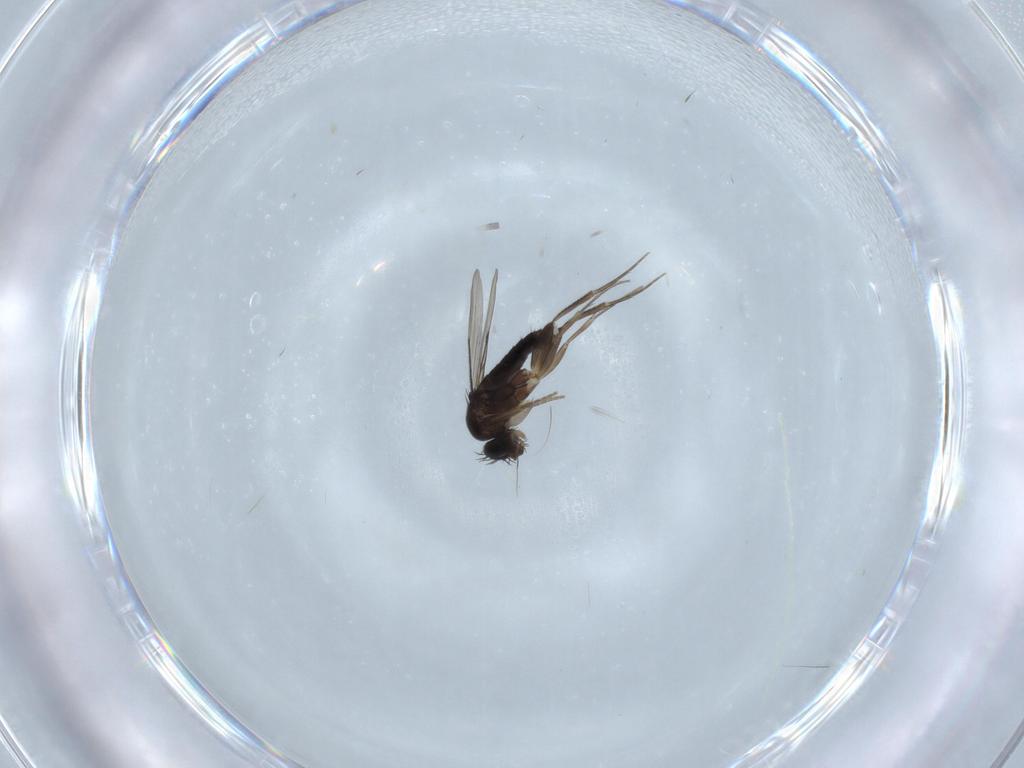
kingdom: Animalia
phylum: Arthropoda
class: Insecta
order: Diptera
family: Phoridae
